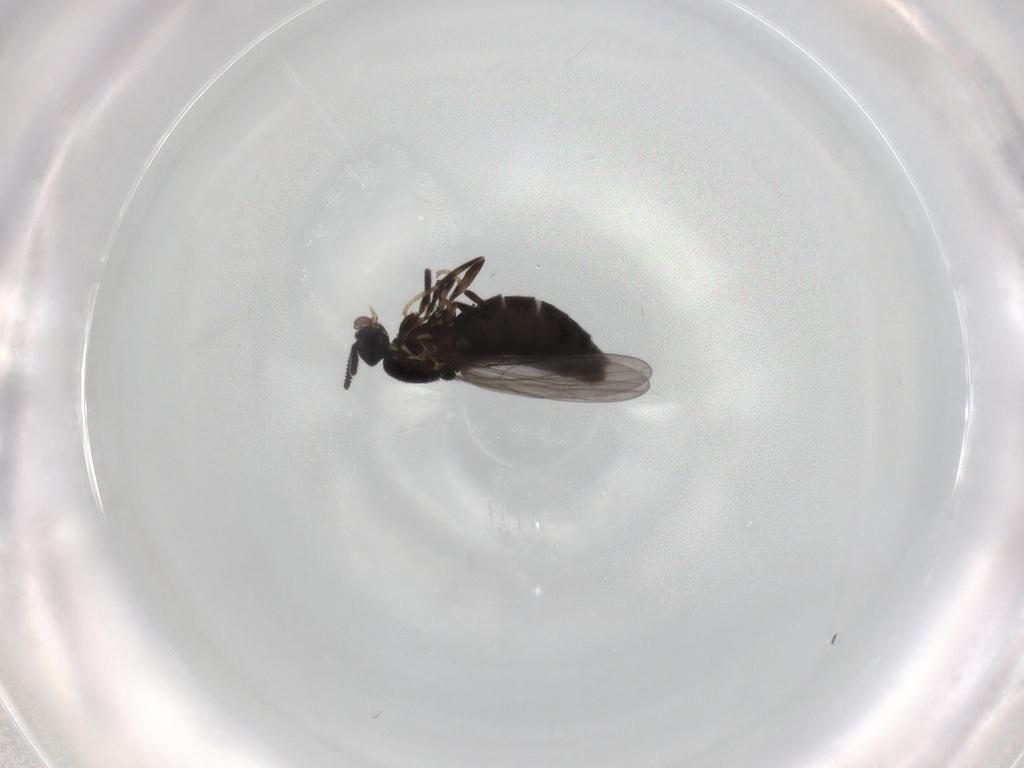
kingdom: Animalia
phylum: Arthropoda
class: Insecta
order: Diptera
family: Scatopsidae
